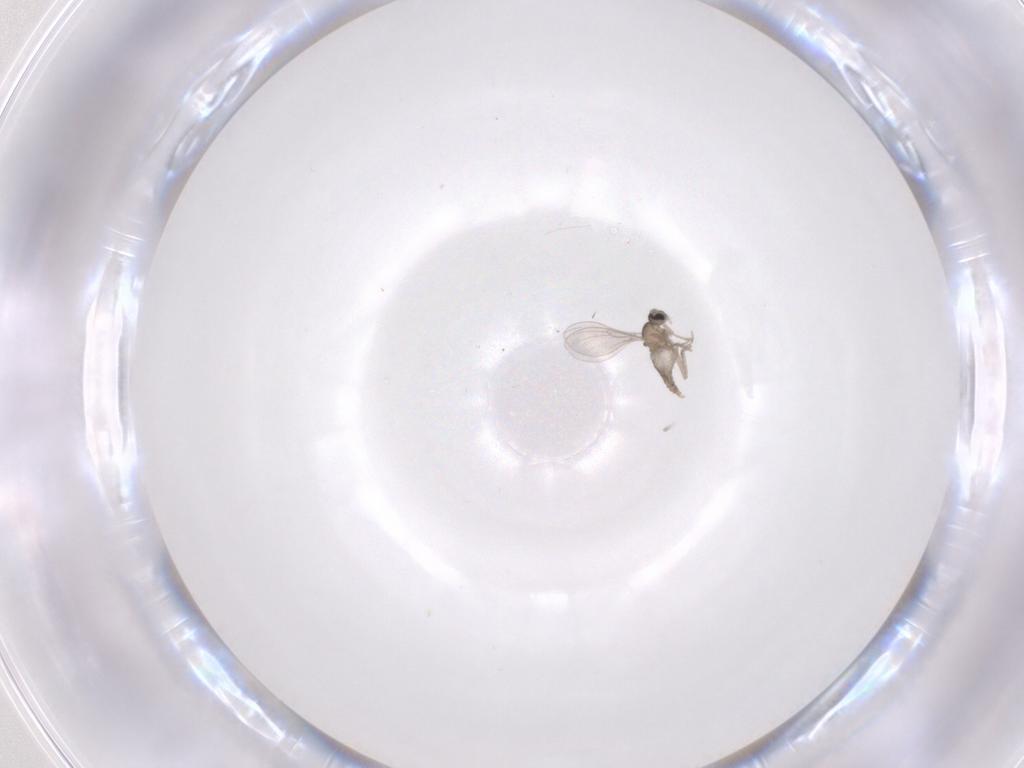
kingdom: Animalia
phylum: Arthropoda
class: Insecta
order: Diptera
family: Cecidomyiidae
